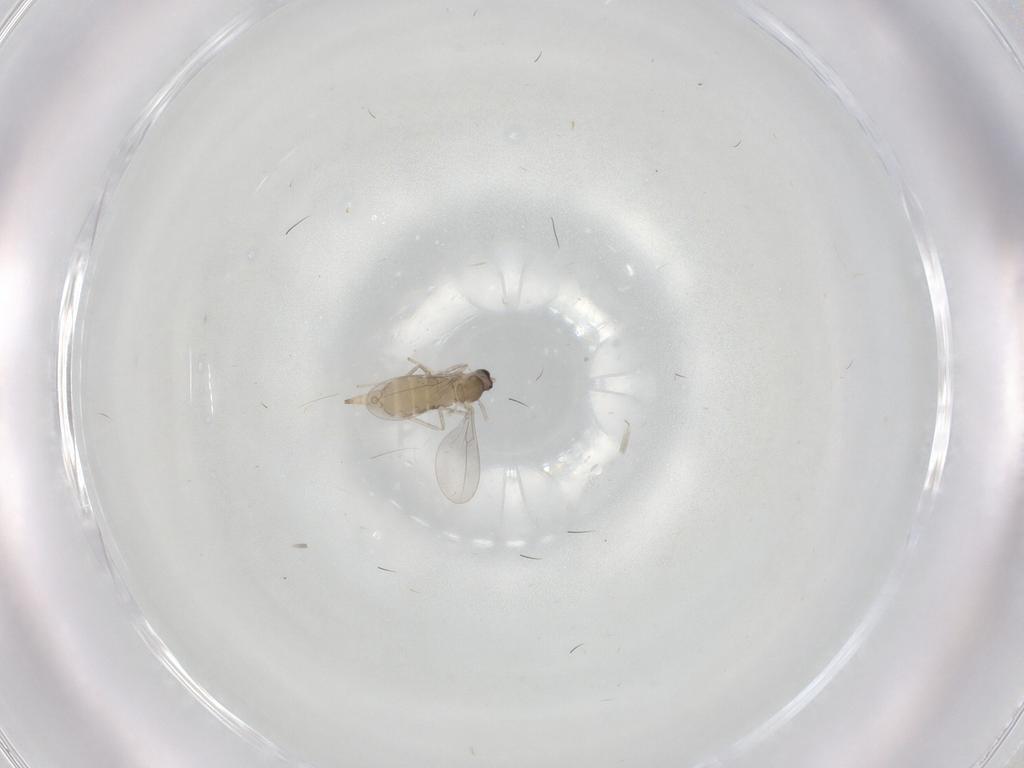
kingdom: Animalia
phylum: Arthropoda
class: Insecta
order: Diptera
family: Cecidomyiidae
